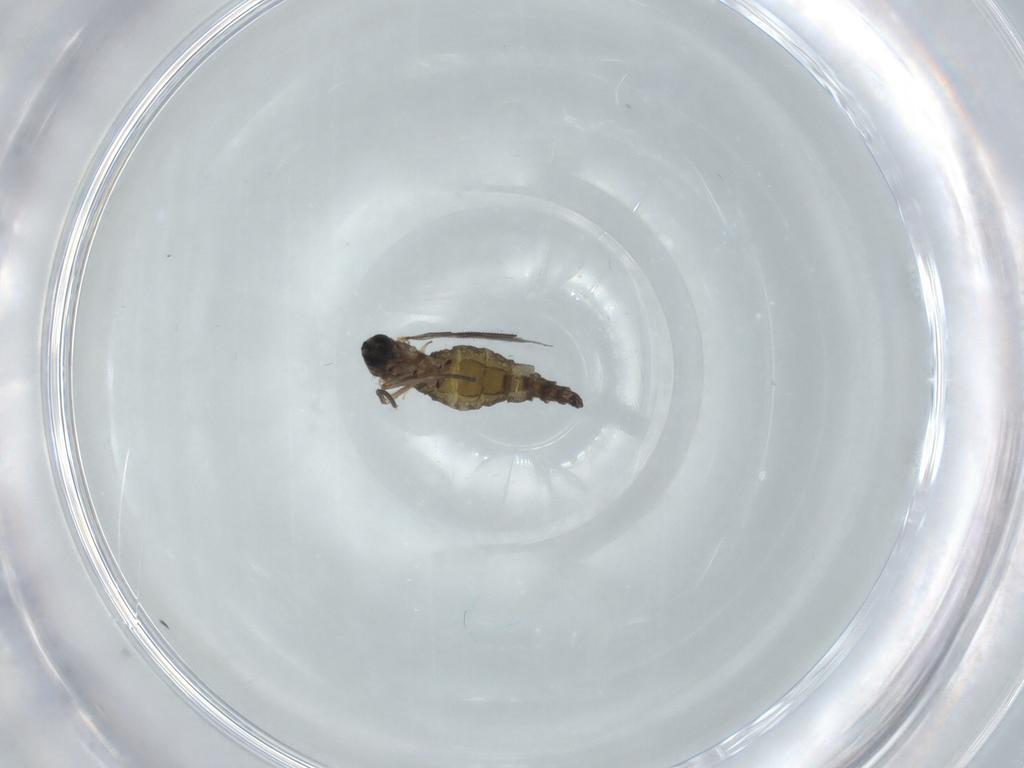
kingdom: Animalia
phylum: Arthropoda
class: Insecta
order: Diptera
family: Sciaridae
